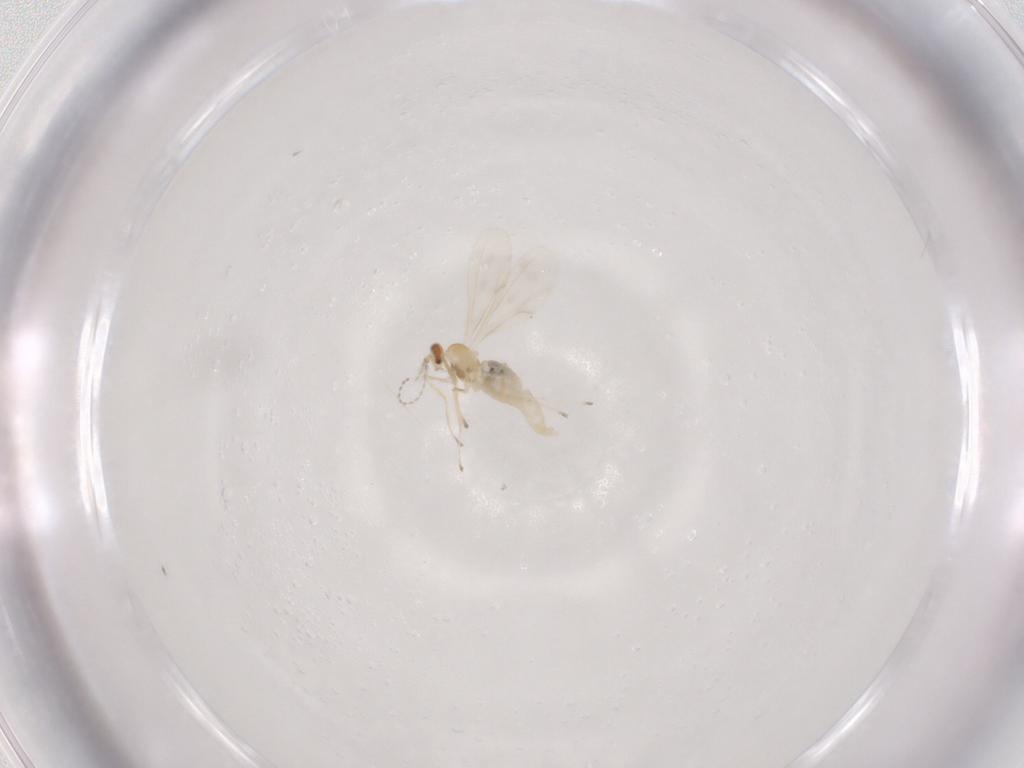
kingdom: Animalia
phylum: Arthropoda
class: Insecta
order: Diptera
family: Cecidomyiidae
